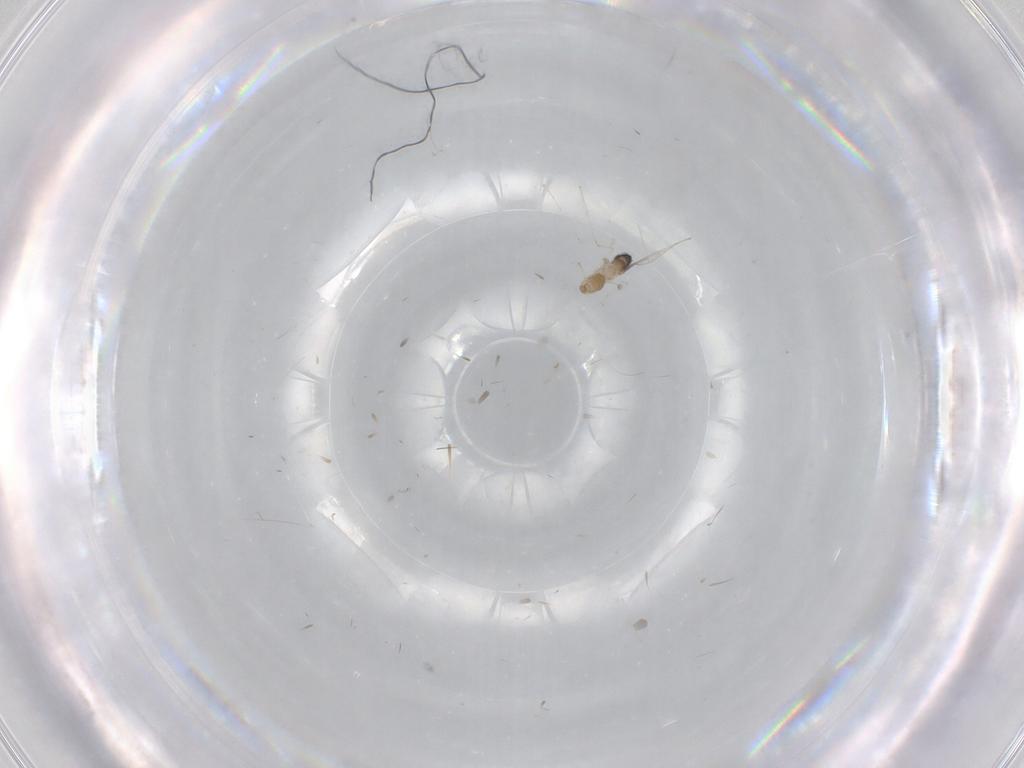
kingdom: Animalia
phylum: Arthropoda
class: Insecta
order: Diptera
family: Cecidomyiidae
